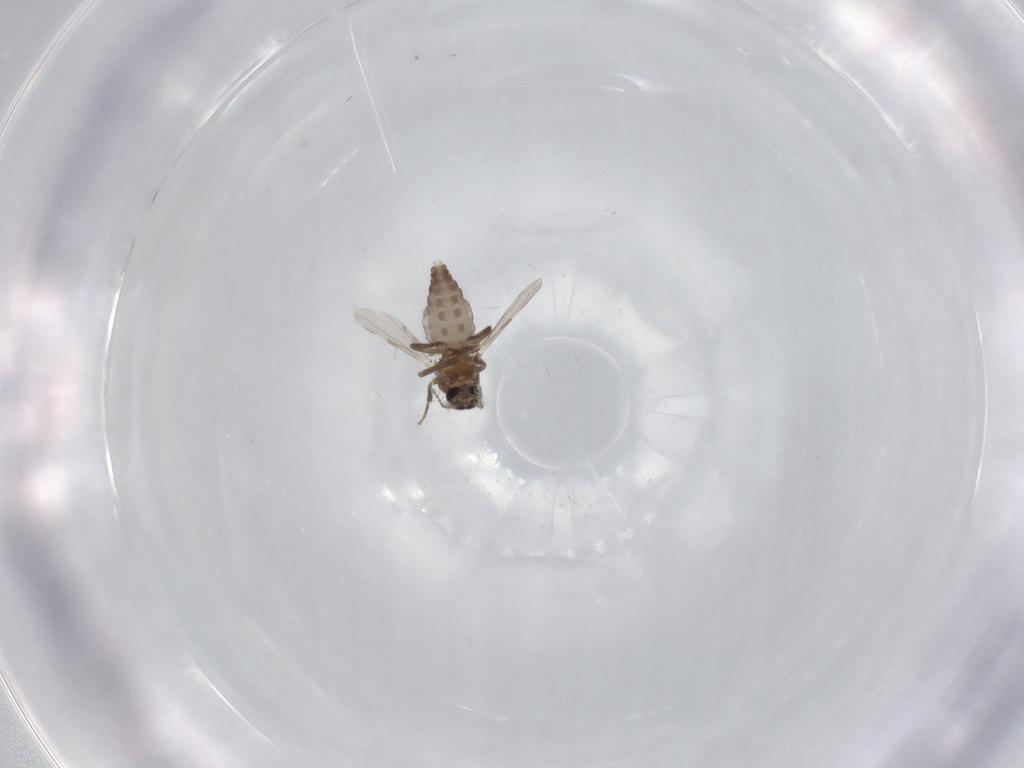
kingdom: Animalia
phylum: Arthropoda
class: Insecta
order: Diptera
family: Ceratopogonidae
